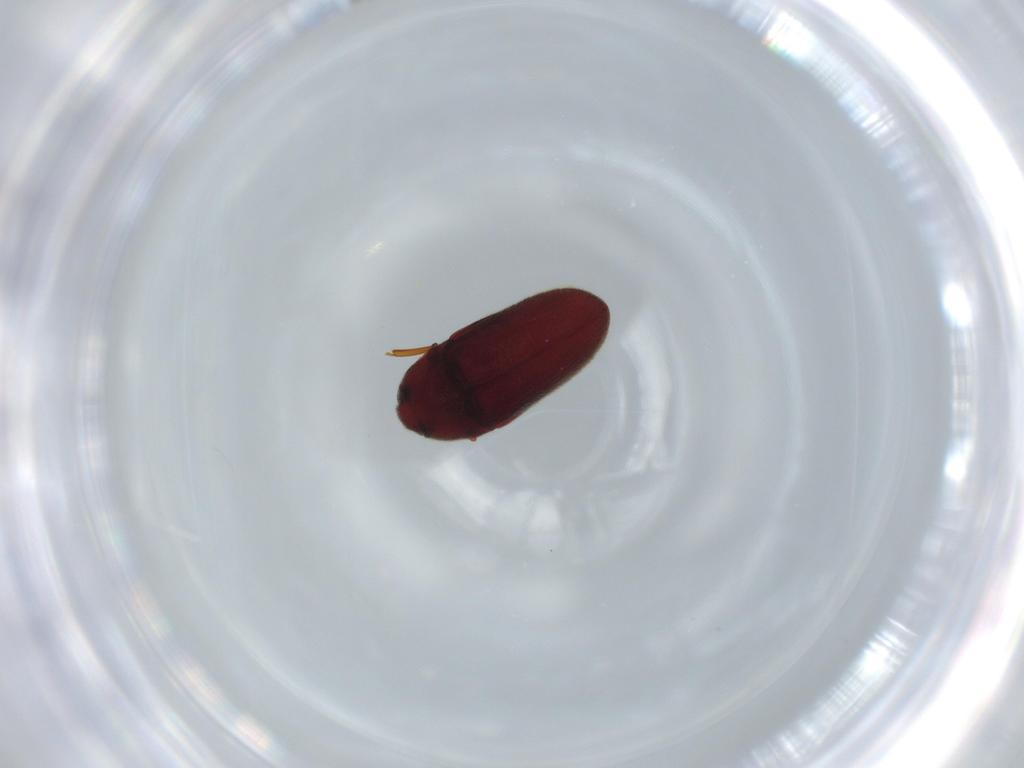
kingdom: Animalia
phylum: Arthropoda
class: Insecta
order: Coleoptera
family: Throscidae
